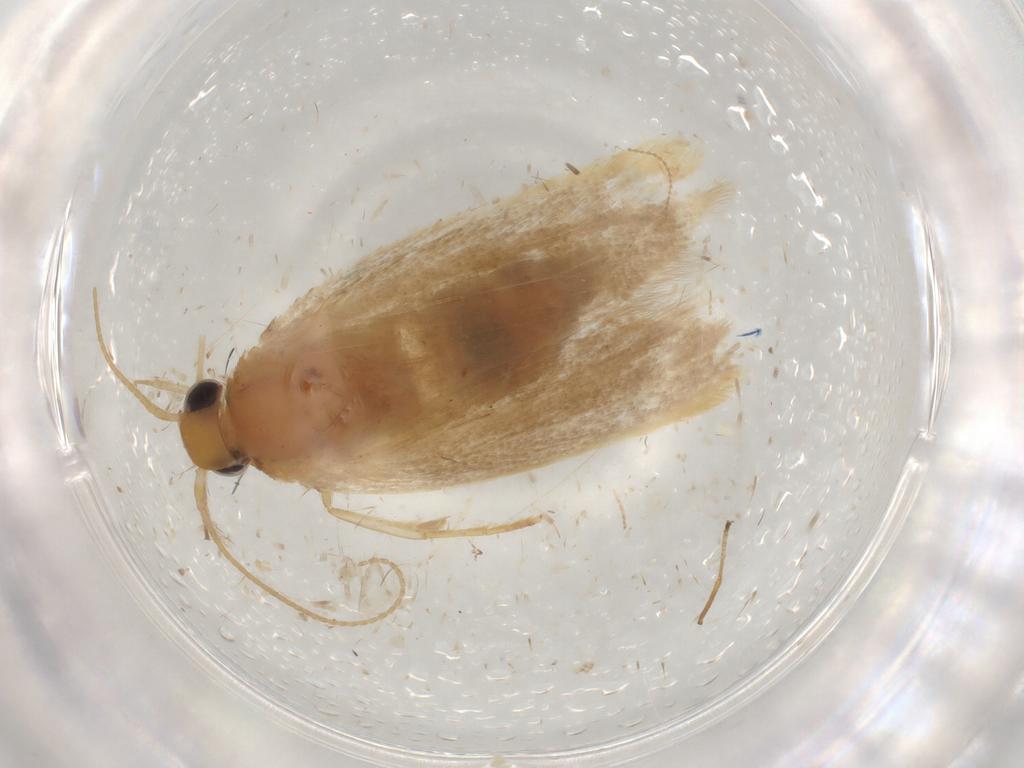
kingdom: Animalia
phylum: Arthropoda
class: Insecta
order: Lepidoptera
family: Gelechiidae
